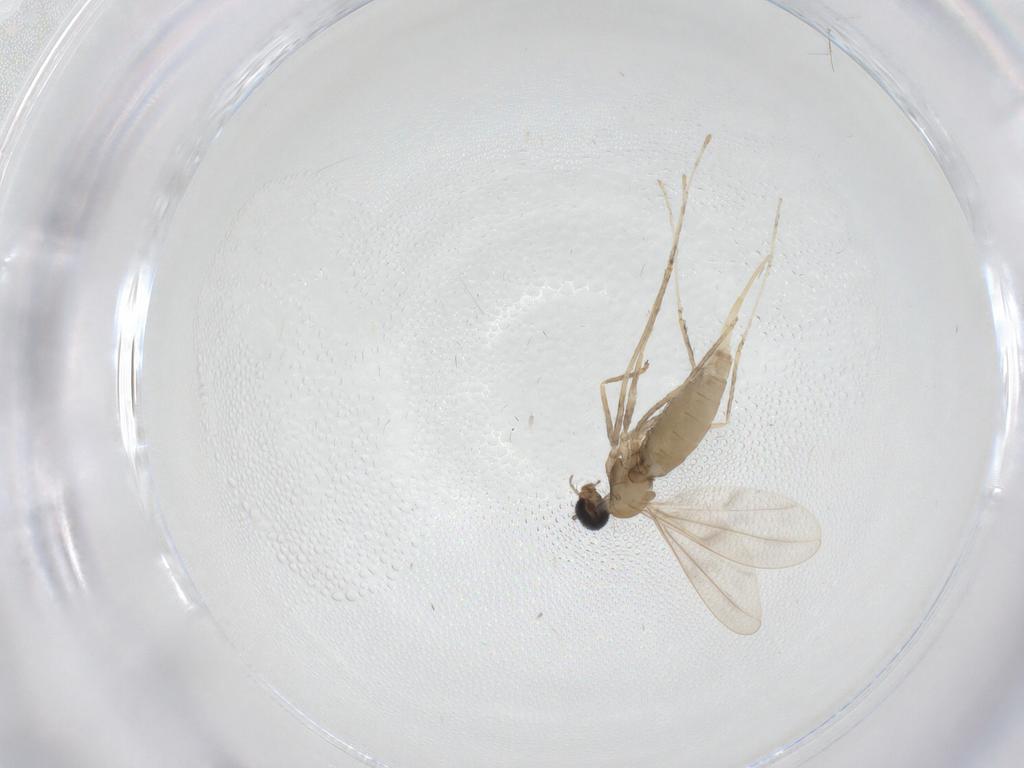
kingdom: Animalia
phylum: Arthropoda
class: Insecta
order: Diptera
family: Cecidomyiidae
